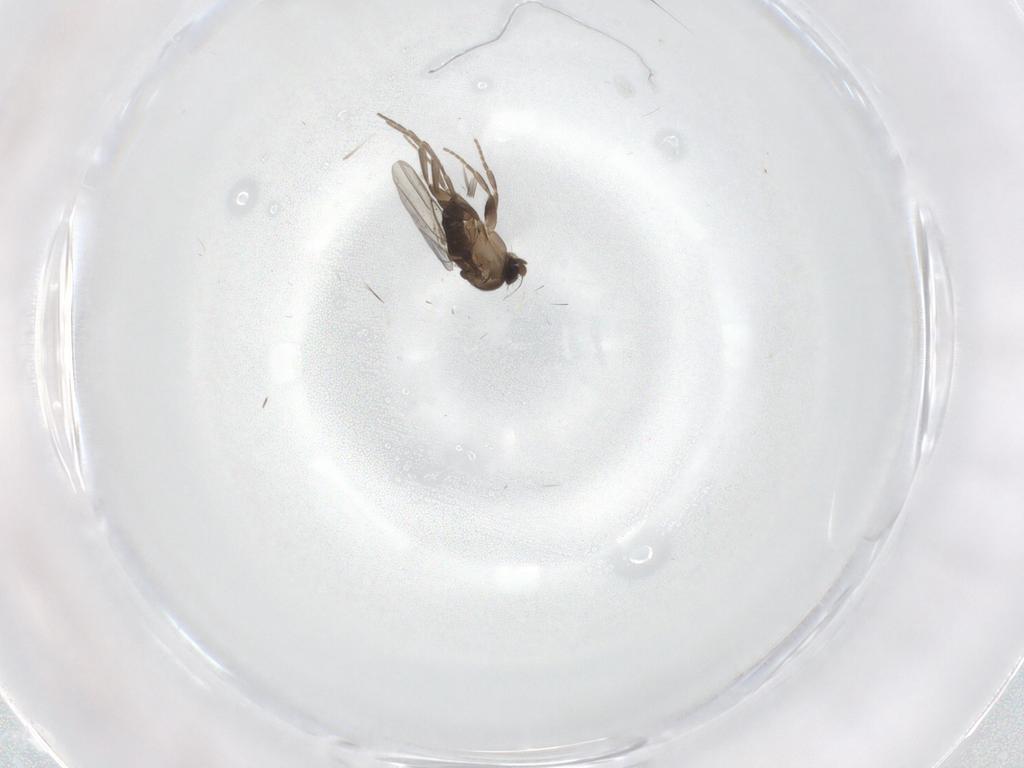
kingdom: Animalia
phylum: Arthropoda
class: Insecta
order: Diptera
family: Phoridae
